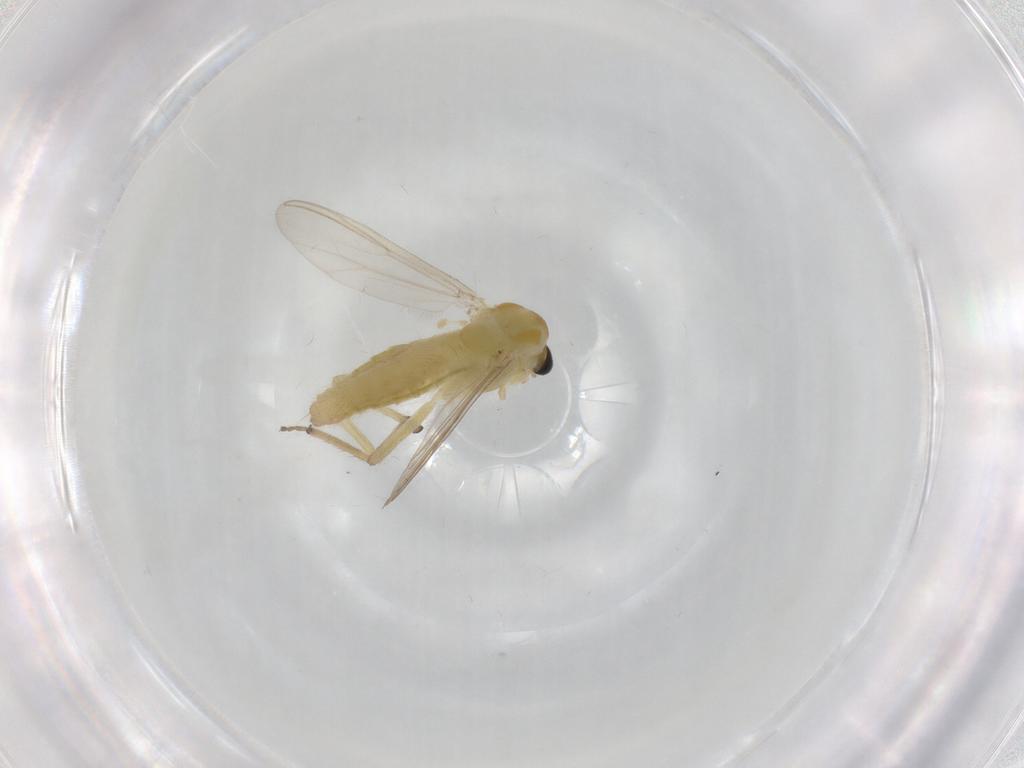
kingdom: Animalia
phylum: Arthropoda
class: Insecta
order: Diptera
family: Chironomidae
